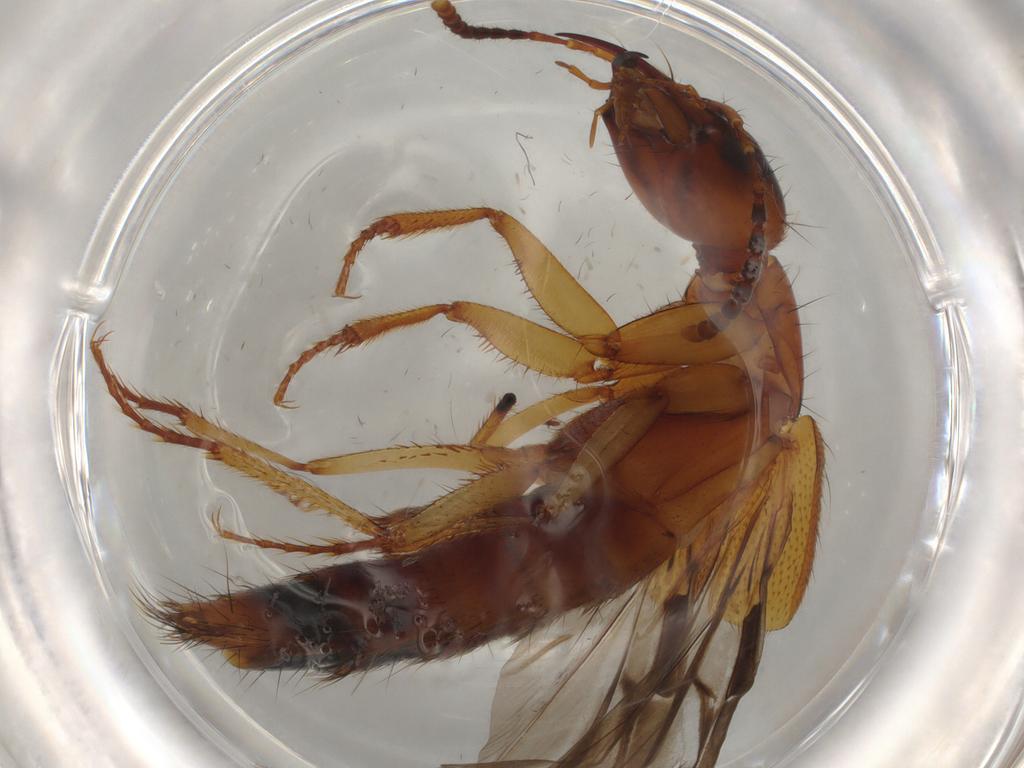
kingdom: Animalia
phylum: Arthropoda
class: Insecta
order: Coleoptera
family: Staphylinidae
